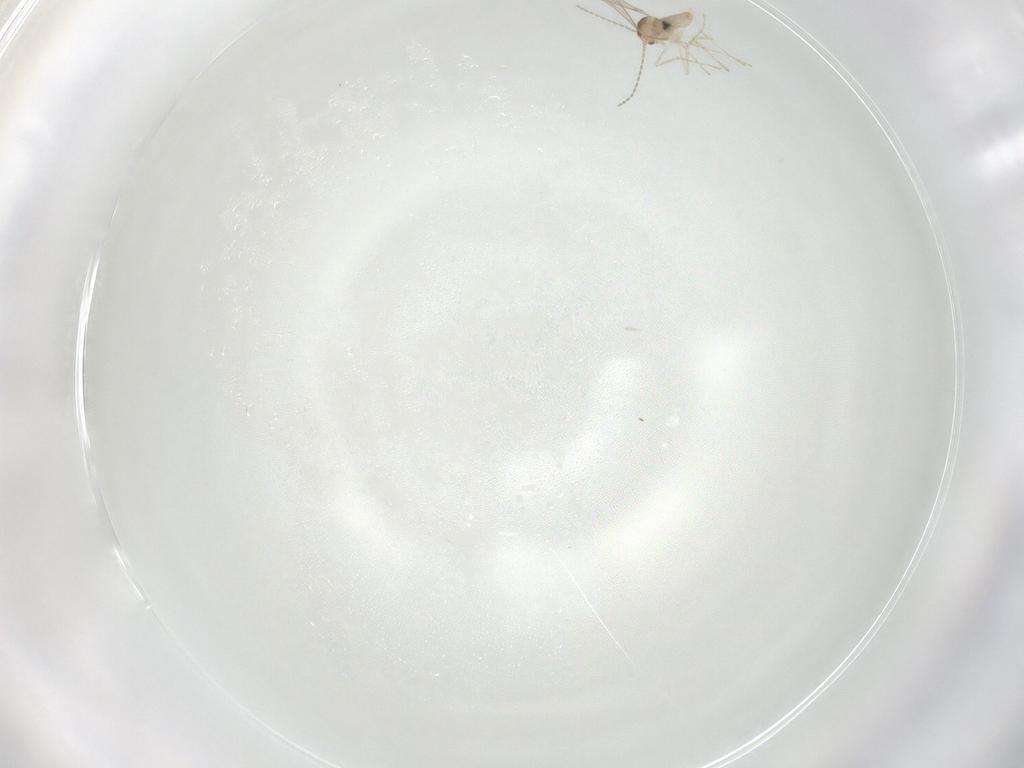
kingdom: Animalia
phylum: Arthropoda
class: Insecta
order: Diptera
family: Cecidomyiidae
